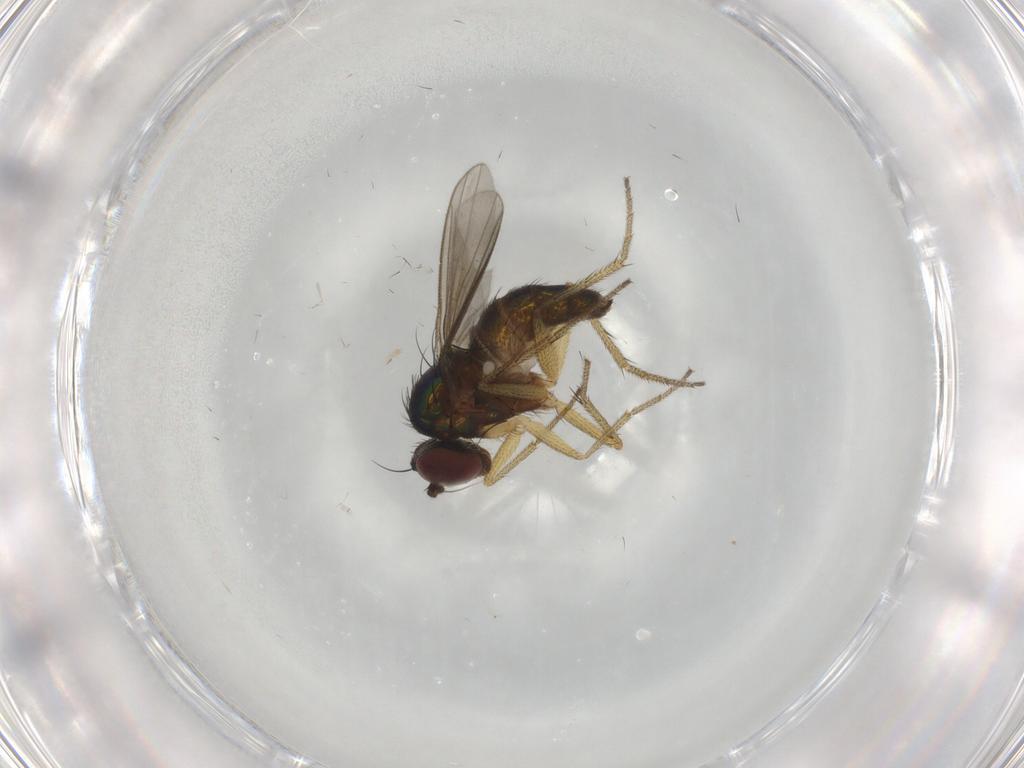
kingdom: Animalia
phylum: Arthropoda
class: Insecta
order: Diptera
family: Dolichopodidae
